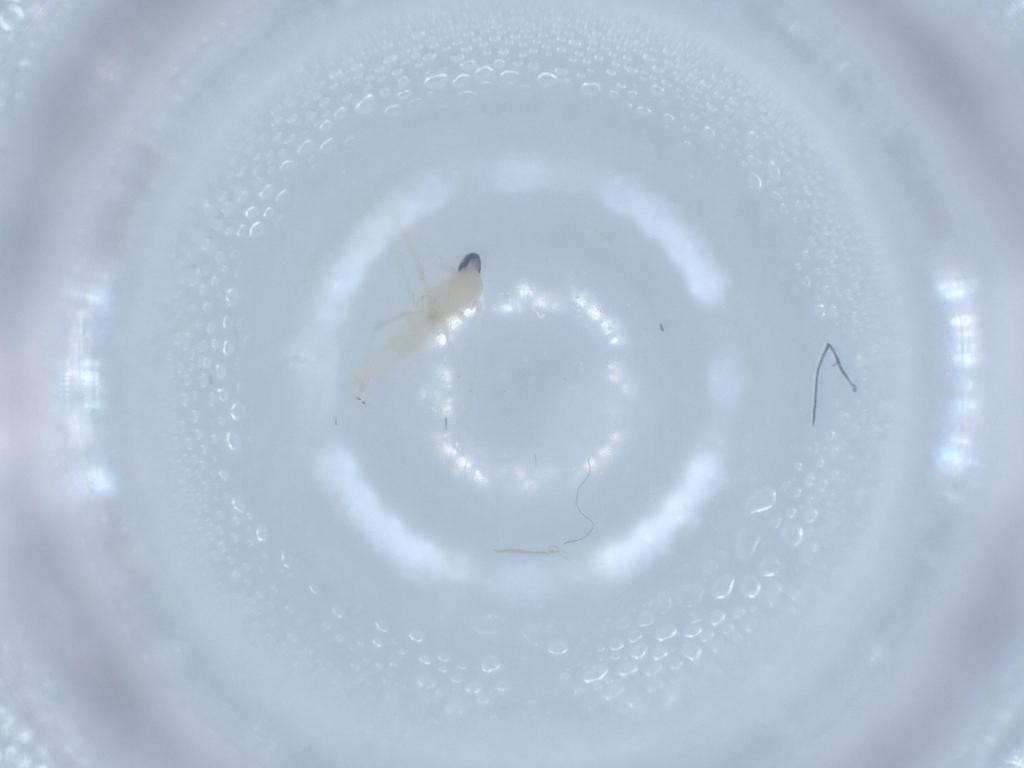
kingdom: Animalia
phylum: Arthropoda
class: Insecta
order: Diptera
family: Cecidomyiidae
